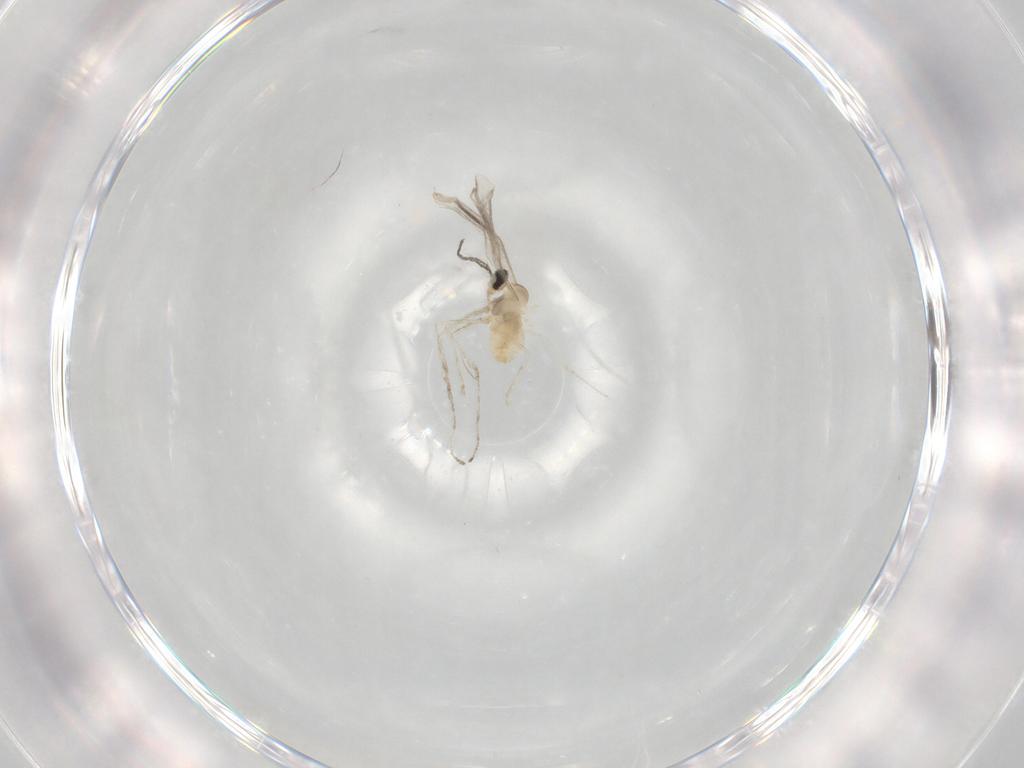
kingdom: Animalia
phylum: Arthropoda
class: Insecta
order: Diptera
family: Cecidomyiidae
